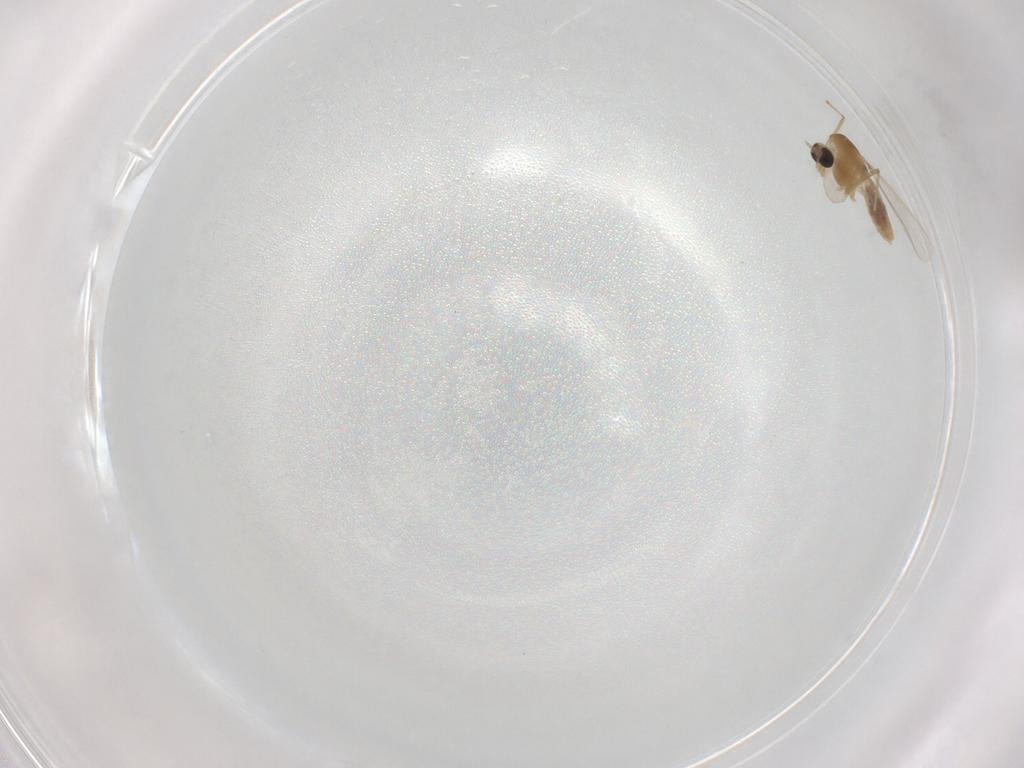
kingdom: Animalia
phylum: Arthropoda
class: Insecta
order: Diptera
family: Chironomidae
